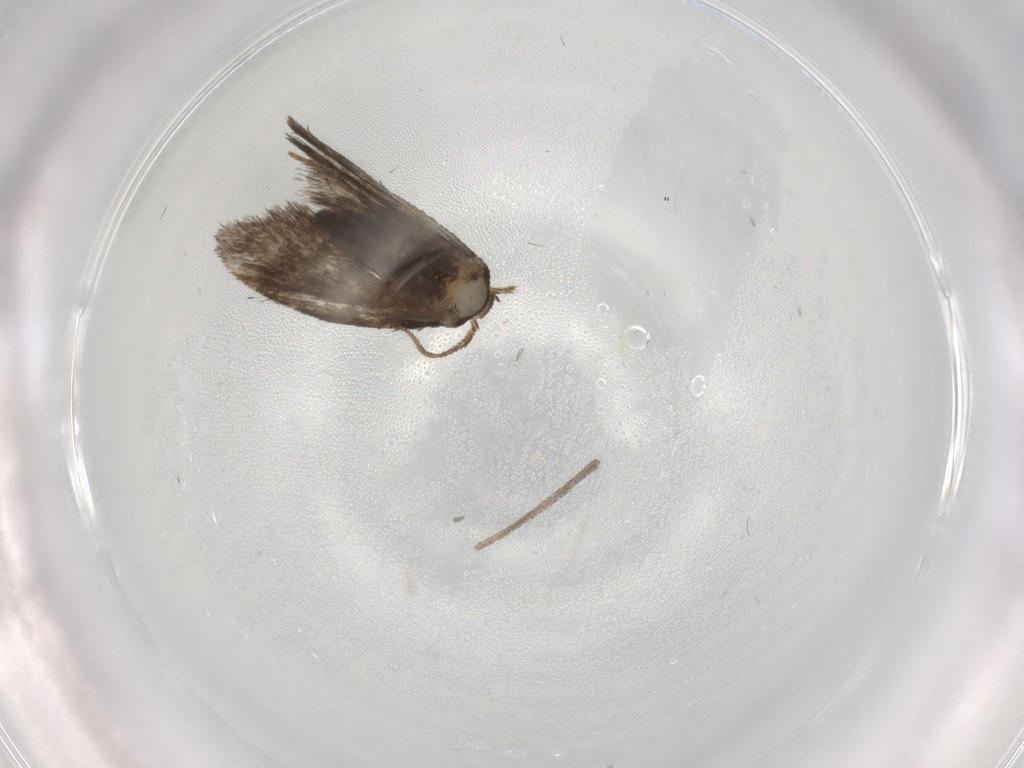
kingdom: Animalia
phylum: Arthropoda
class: Insecta
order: Lepidoptera
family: Psychidae
